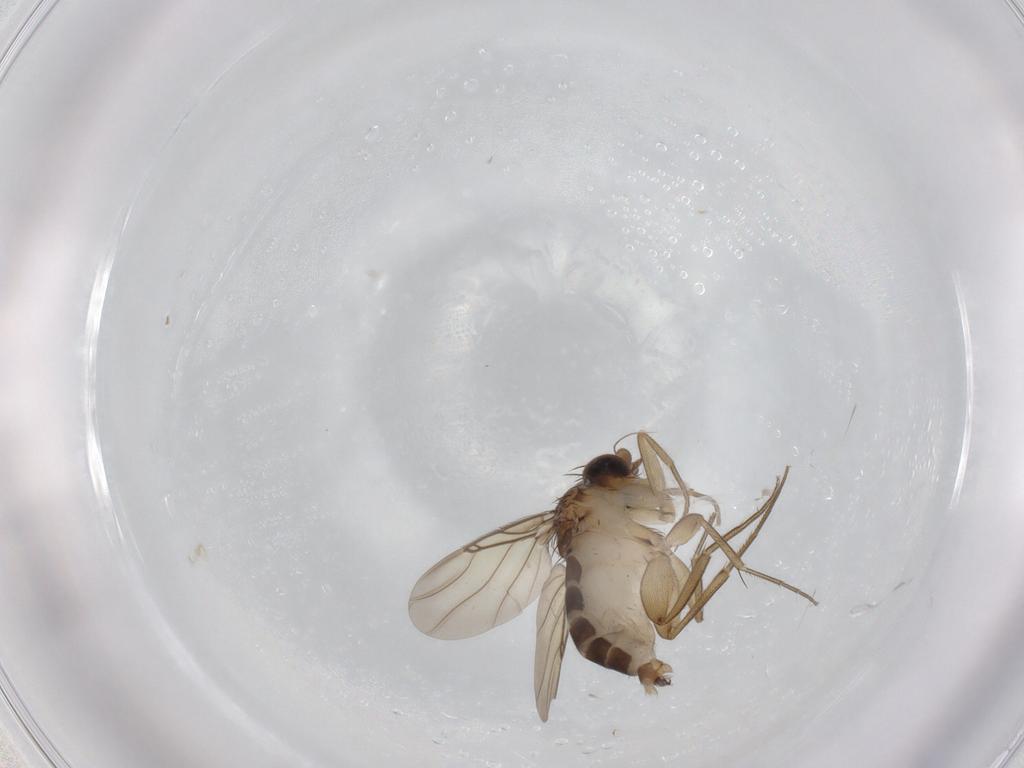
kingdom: Animalia
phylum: Arthropoda
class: Insecta
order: Diptera
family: Phoridae
